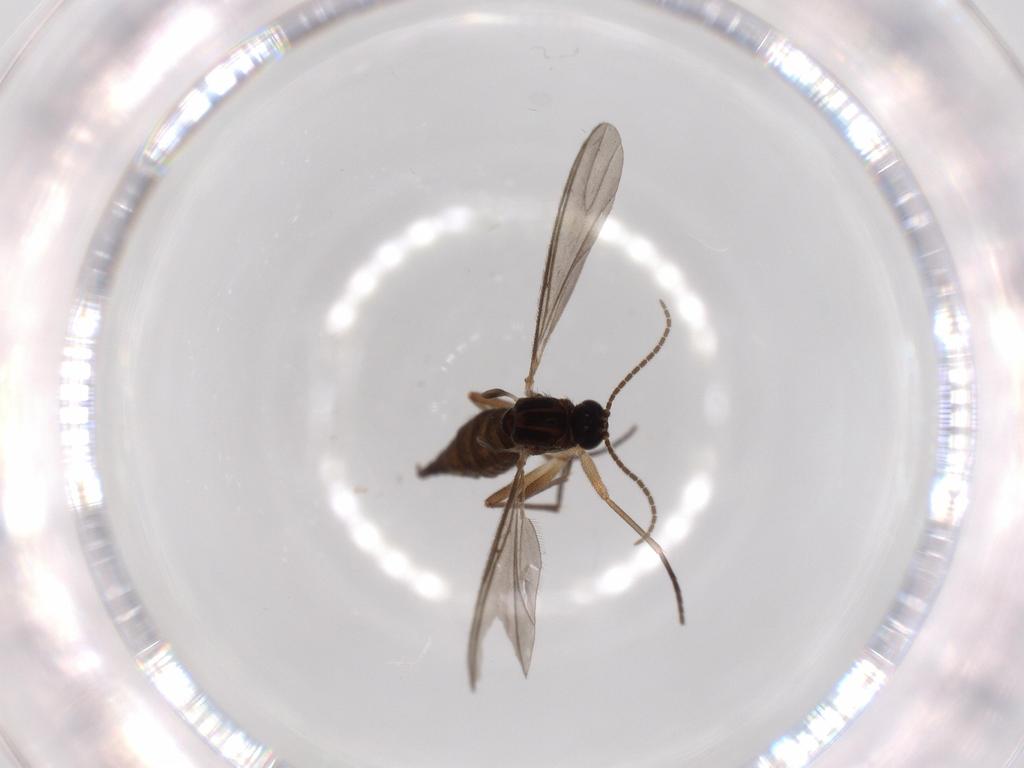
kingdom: Animalia
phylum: Arthropoda
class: Insecta
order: Diptera
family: Sciaridae
